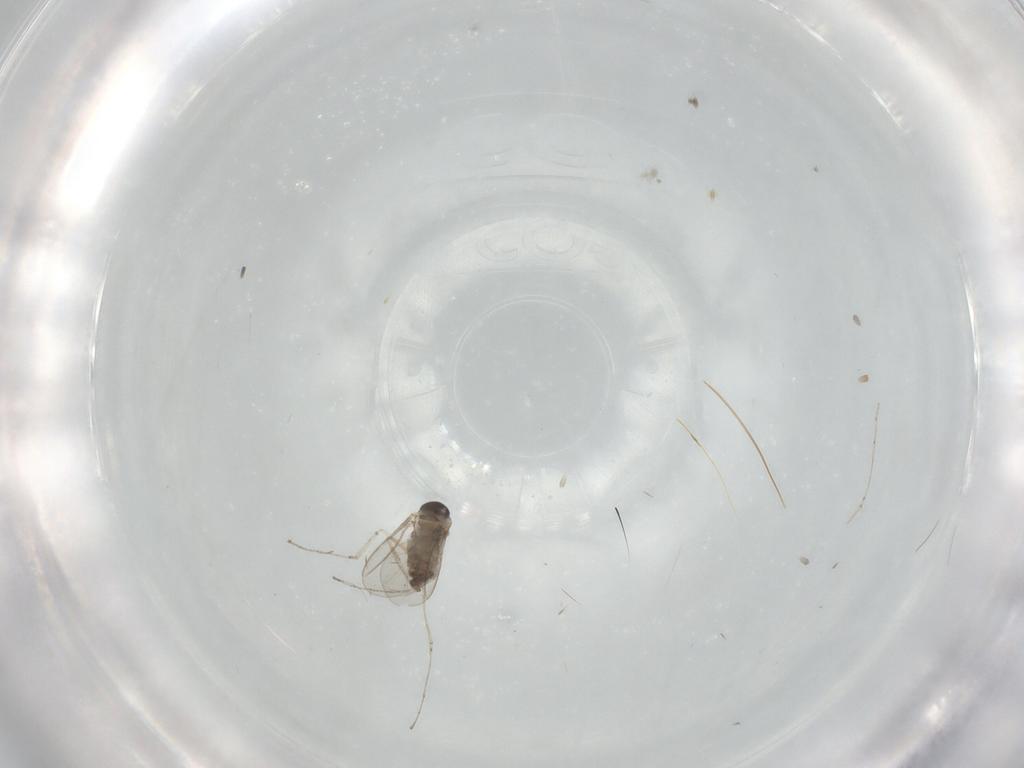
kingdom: Animalia
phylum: Arthropoda
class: Insecta
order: Diptera
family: Cecidomyiidae
